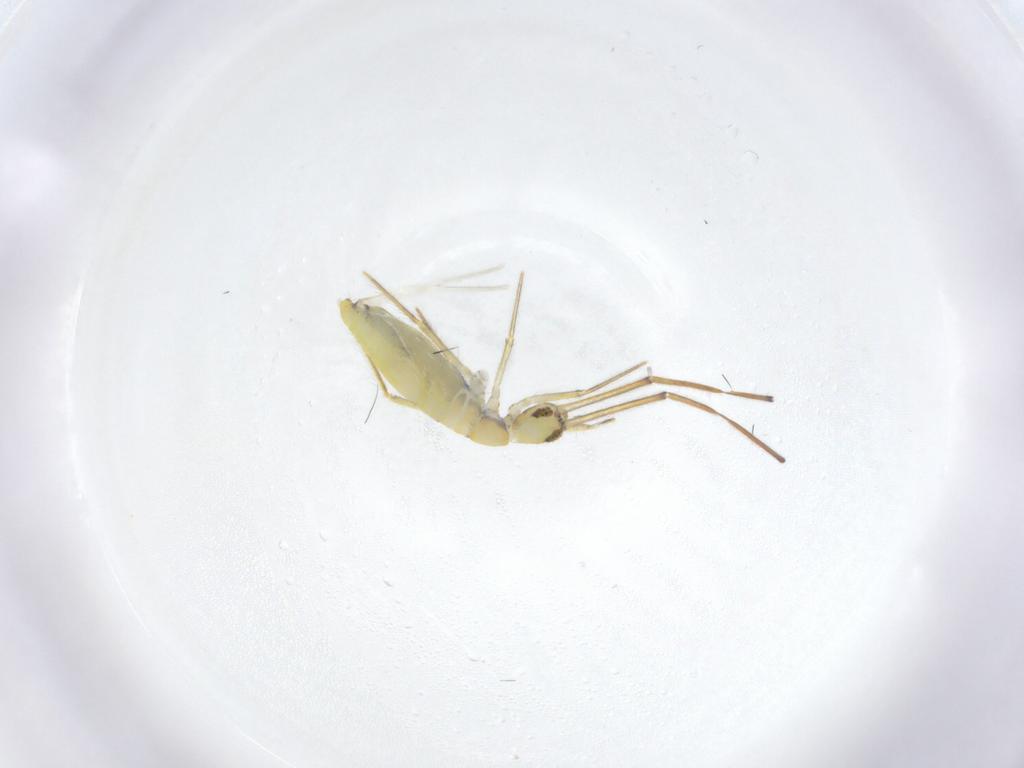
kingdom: Animalia
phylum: Arthropoda
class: Collembola
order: Entomobryomorpha
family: Entomobryidae
